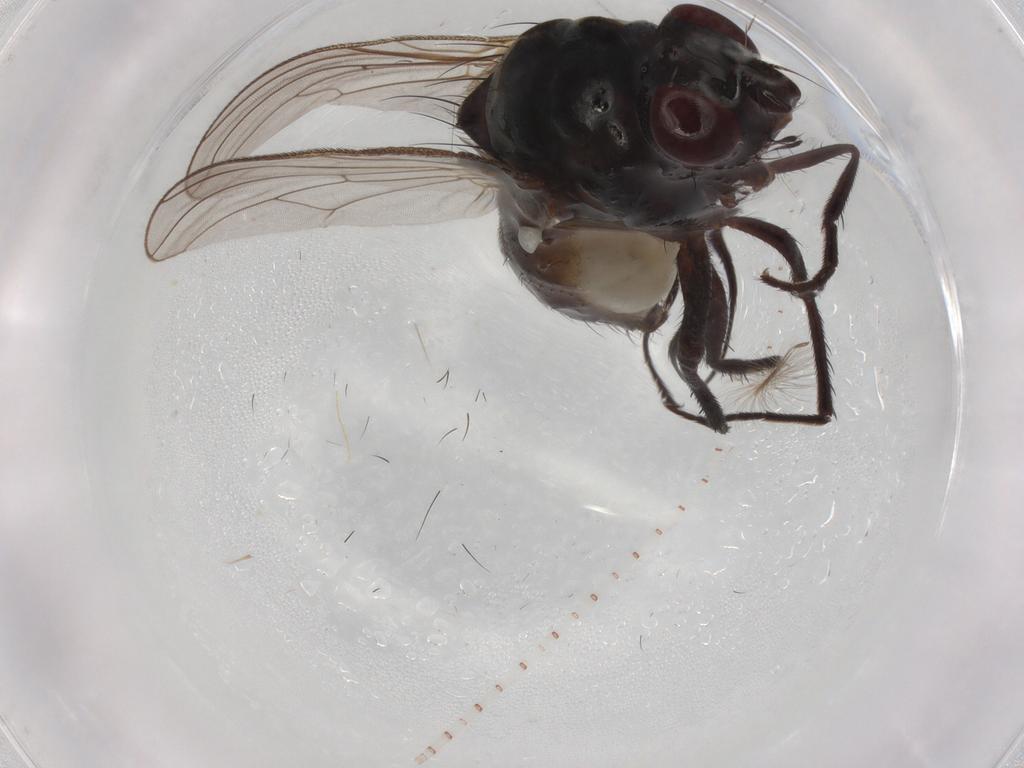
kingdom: Animalia
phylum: Arthropoda
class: Insecta
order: Diptera
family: Anthomyiidae
